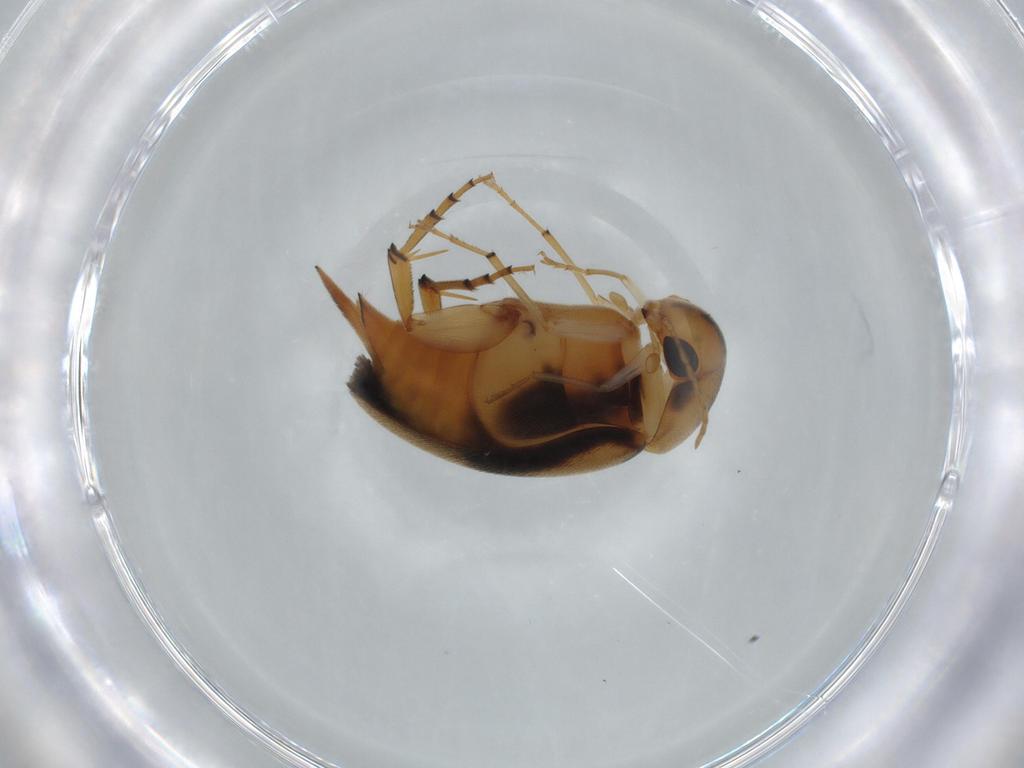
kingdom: Animalia
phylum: Arthropoda
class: Insecta
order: Coleoptera
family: Mordellidae
